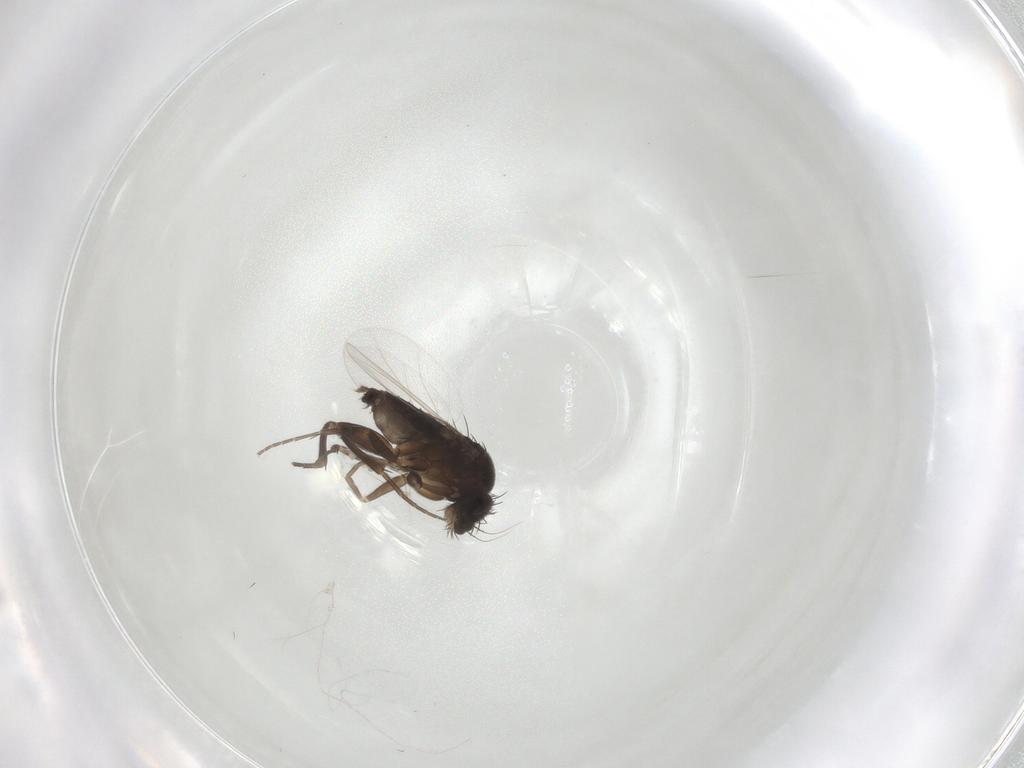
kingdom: Animalia
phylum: Arthropoda
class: Insecta
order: Diptera
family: Phoridae
